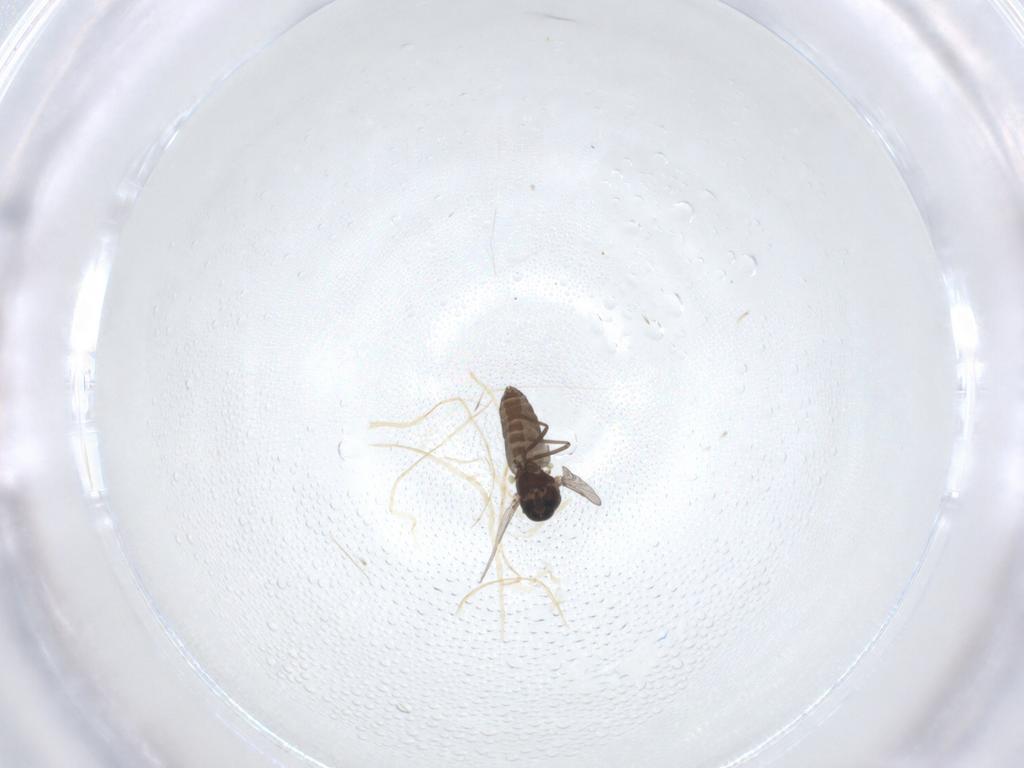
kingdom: Animalia
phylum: Arthropoda
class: Insecta
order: Diptera
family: Ceratopogonidae
